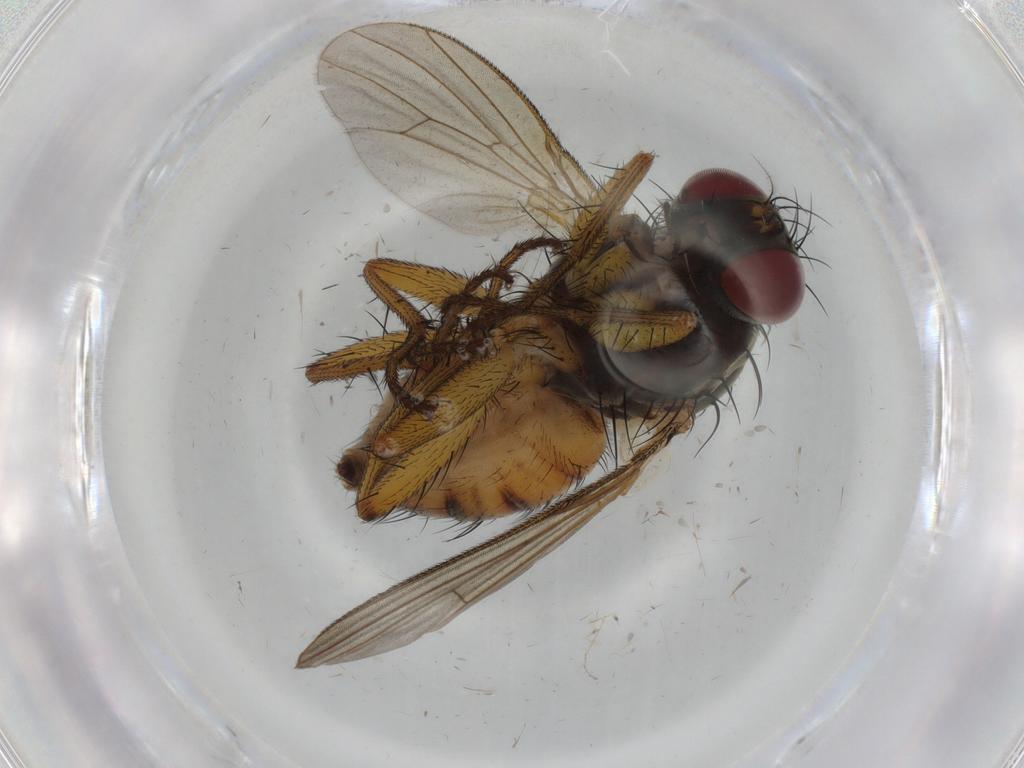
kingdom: Animalia
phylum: Arthropoda
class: Insecta
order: Diptera
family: Muscidae
